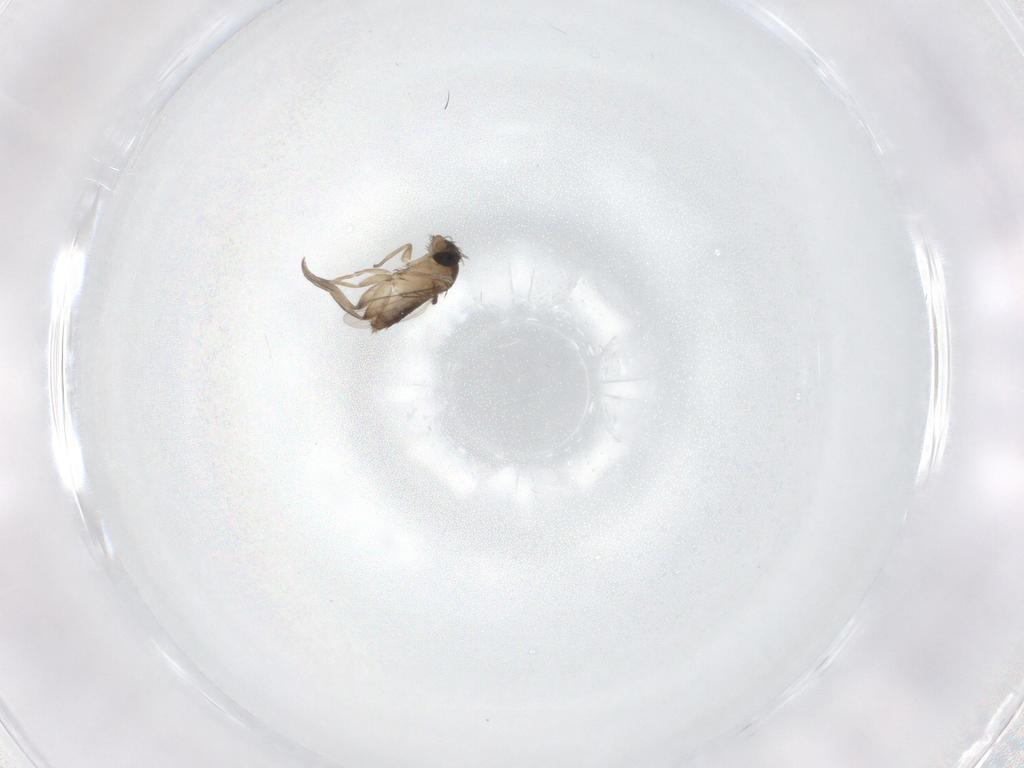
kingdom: Animalia
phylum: Arthropoda
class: Insecta
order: Diptera
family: Phoridae
